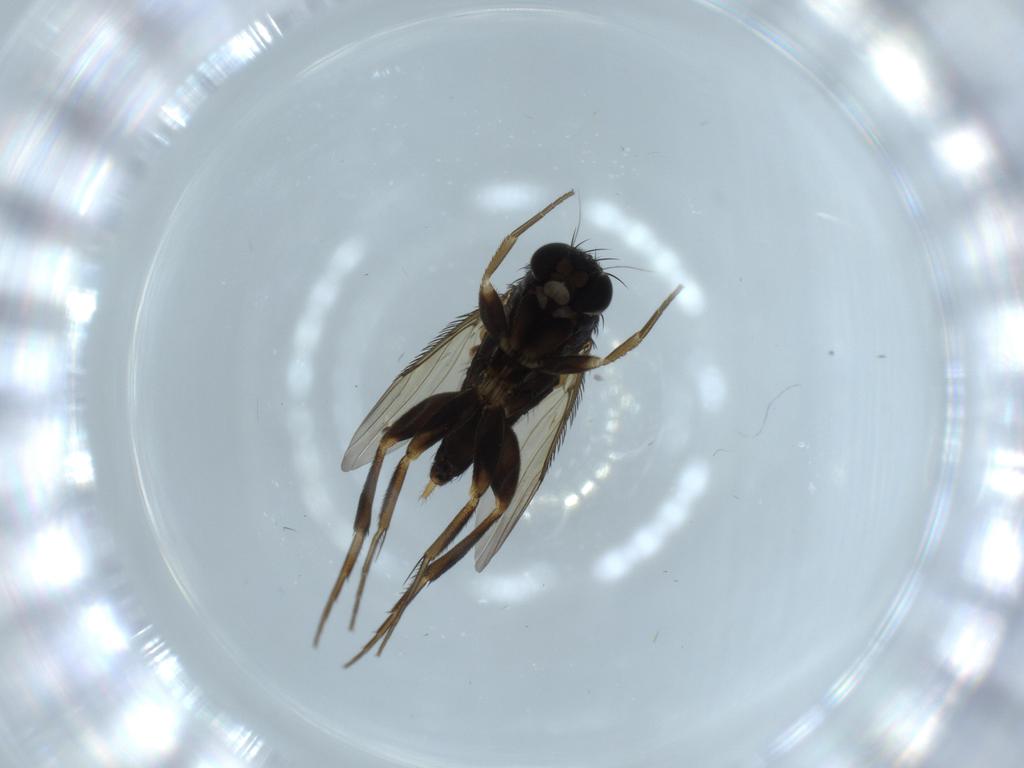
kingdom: Animalia
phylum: Arthropoda
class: Insecta
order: Diptera
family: Phoridae
